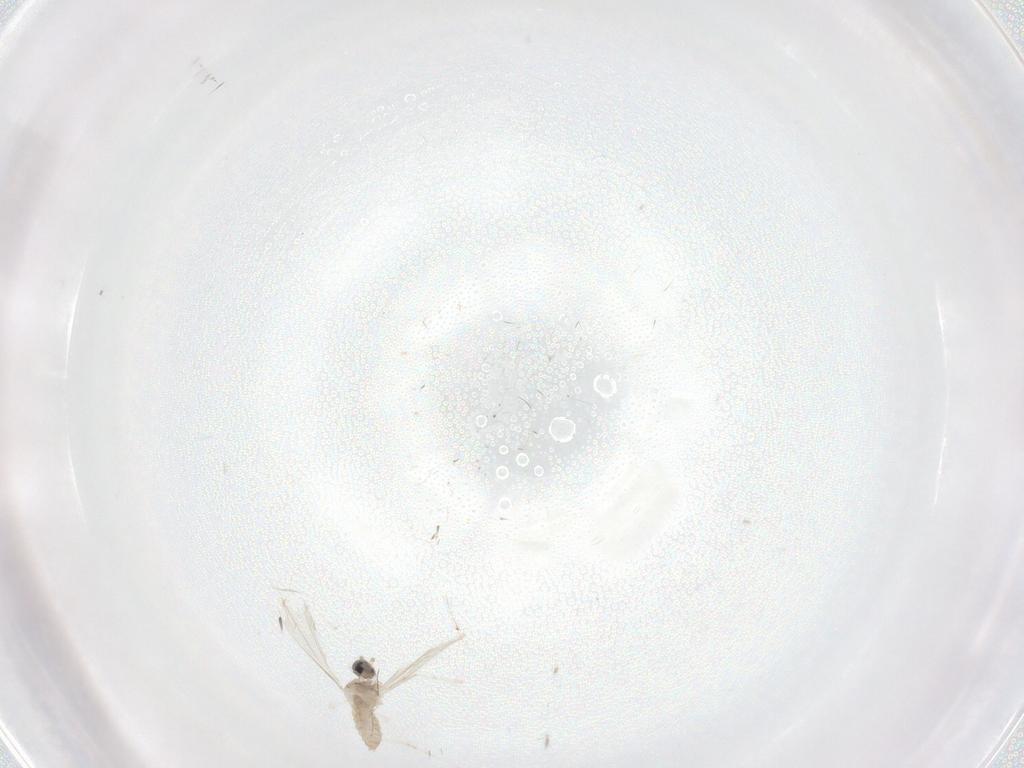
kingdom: Animalia
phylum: Arthropoda
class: Insecta
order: Diptera
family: Cecidomyiidae
